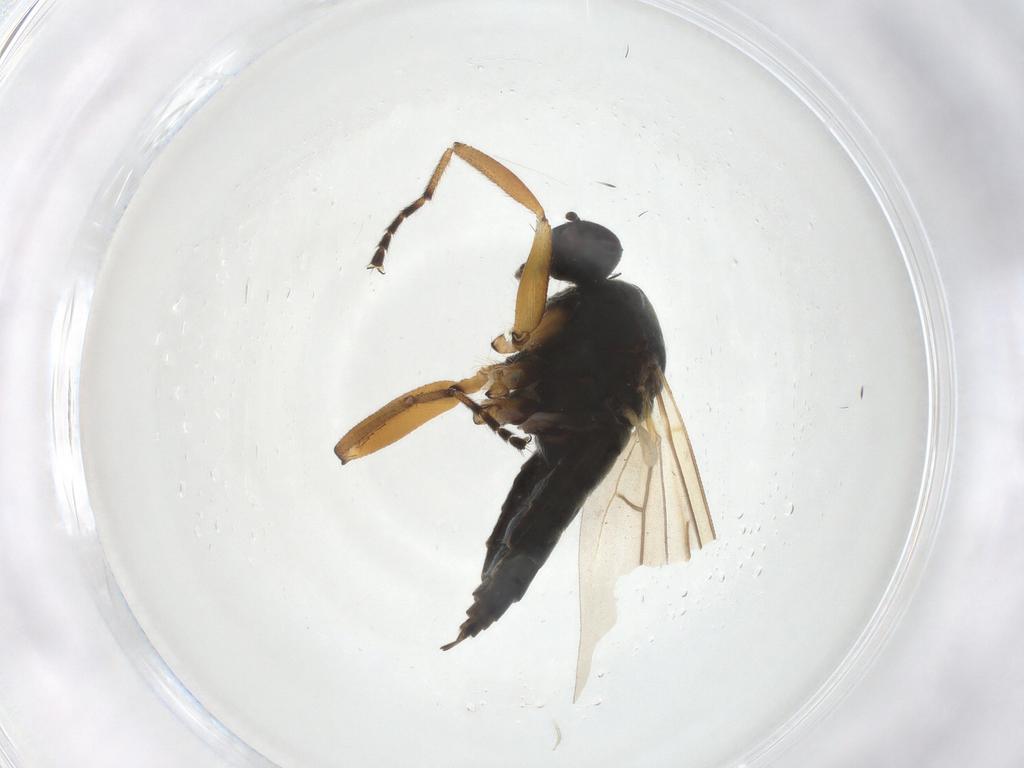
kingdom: Animalia
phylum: Arthropoda
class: Insecta
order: Diptera
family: Hybotidae
